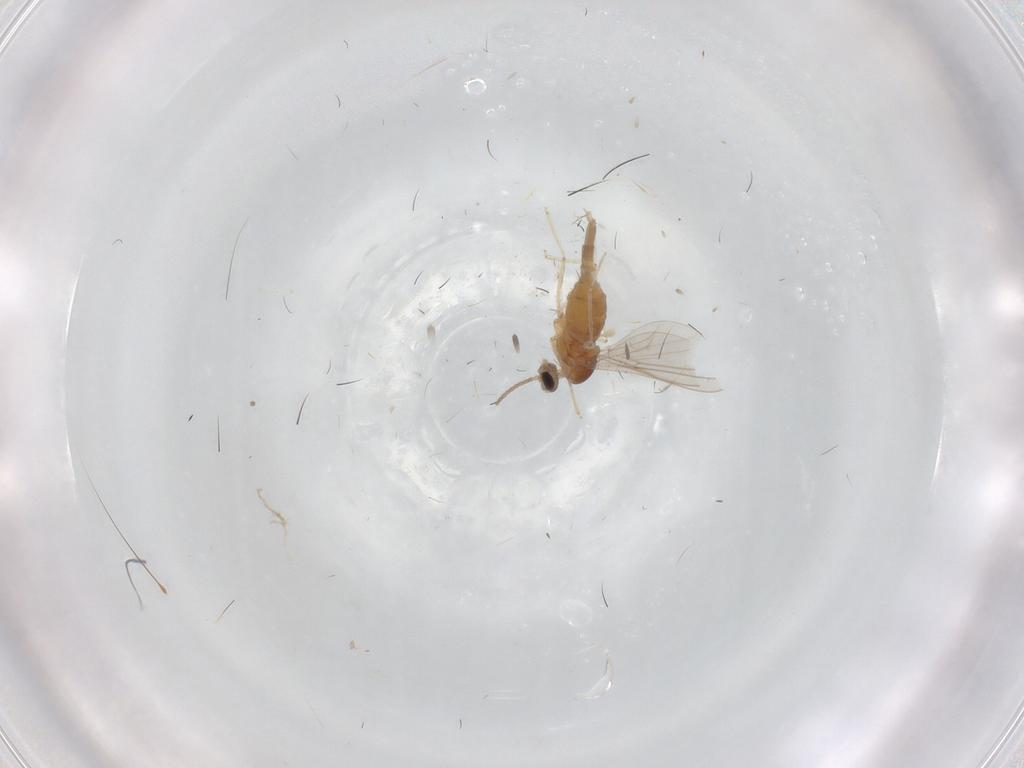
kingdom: Animalia
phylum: Arthropoda
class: Insecta
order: Diptera
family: Cecidomyiidae
